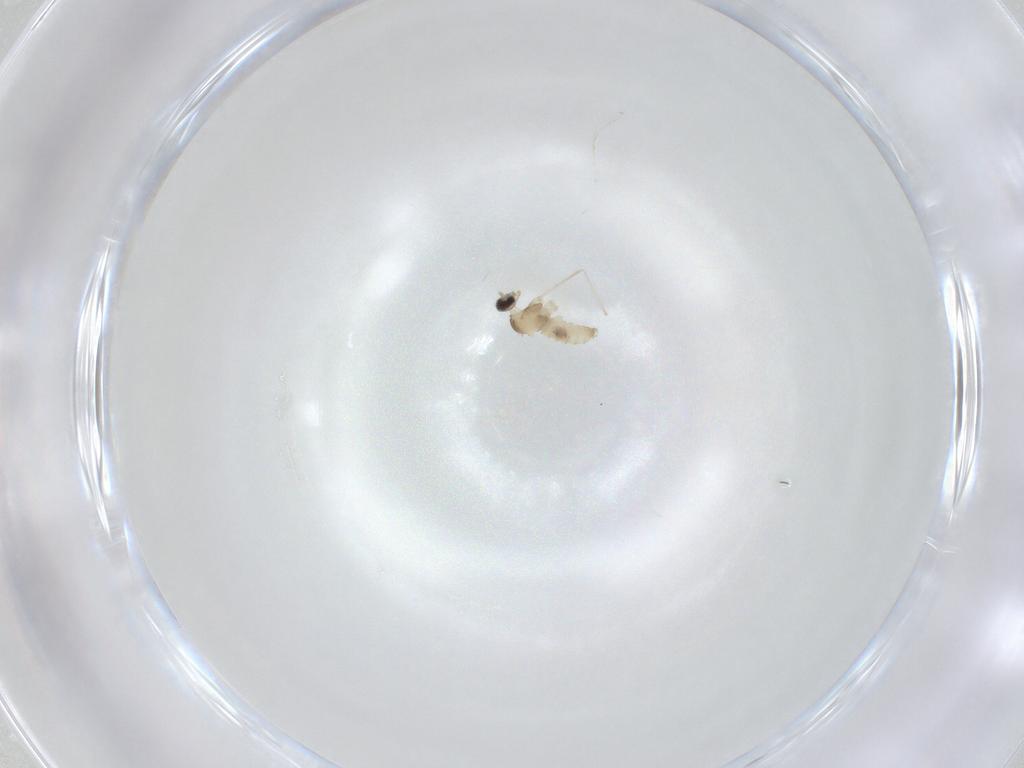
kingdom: Animalia
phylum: Arthropoda
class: Insecta
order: Diptera
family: Cecidomyiidae
